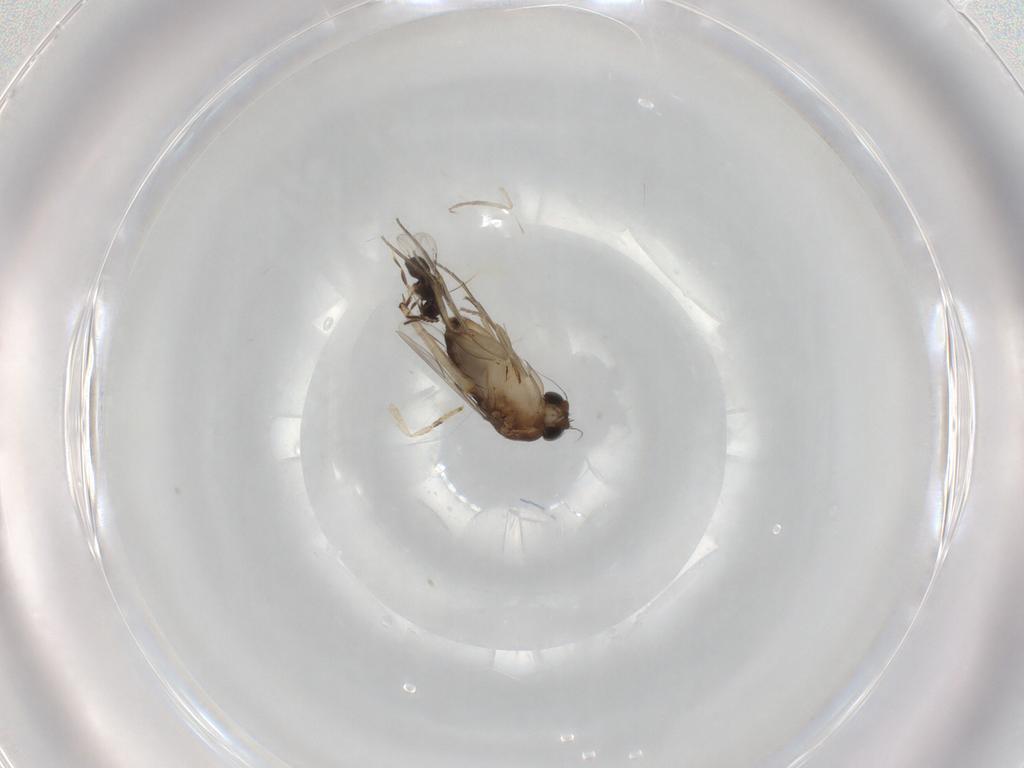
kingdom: Animalia
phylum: Arthropoda
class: Insecta
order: Diptera
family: Phoridae
